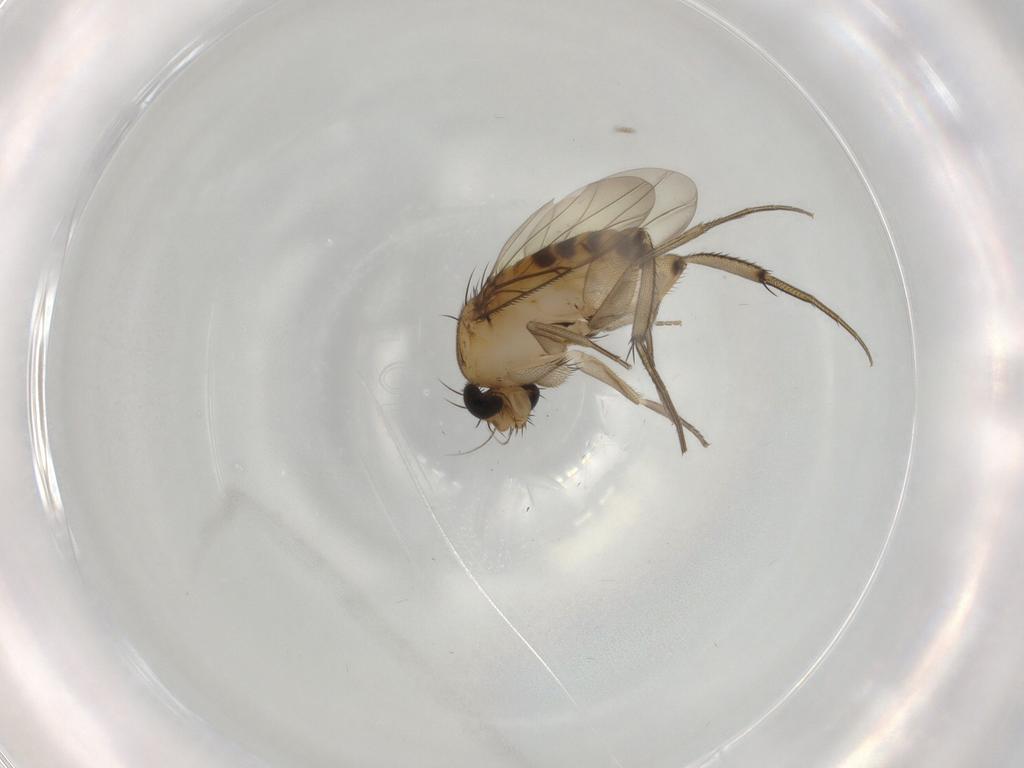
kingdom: Animalia
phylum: Arthropoda
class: Insecta
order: Diptera
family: Phoridae
